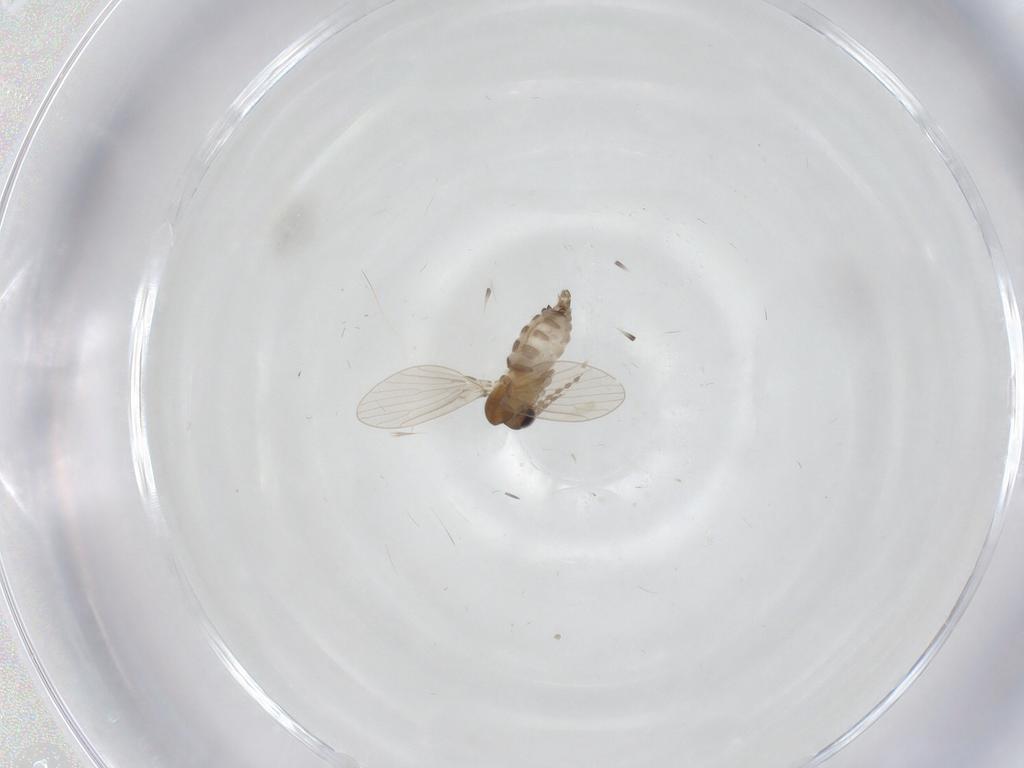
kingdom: Animalia
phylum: Arthropoda
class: Insecta
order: Diptera
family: Psychodidae
